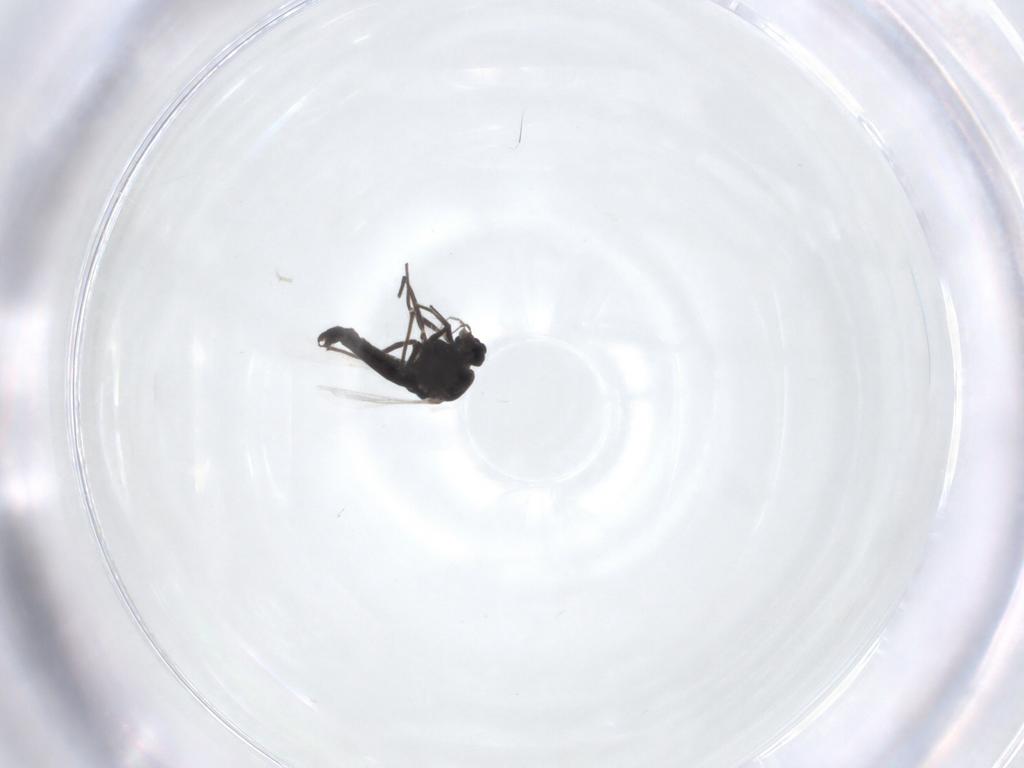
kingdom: Animalia
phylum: Arthropoda
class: Insecta
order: Diptera
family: Chironomidae
